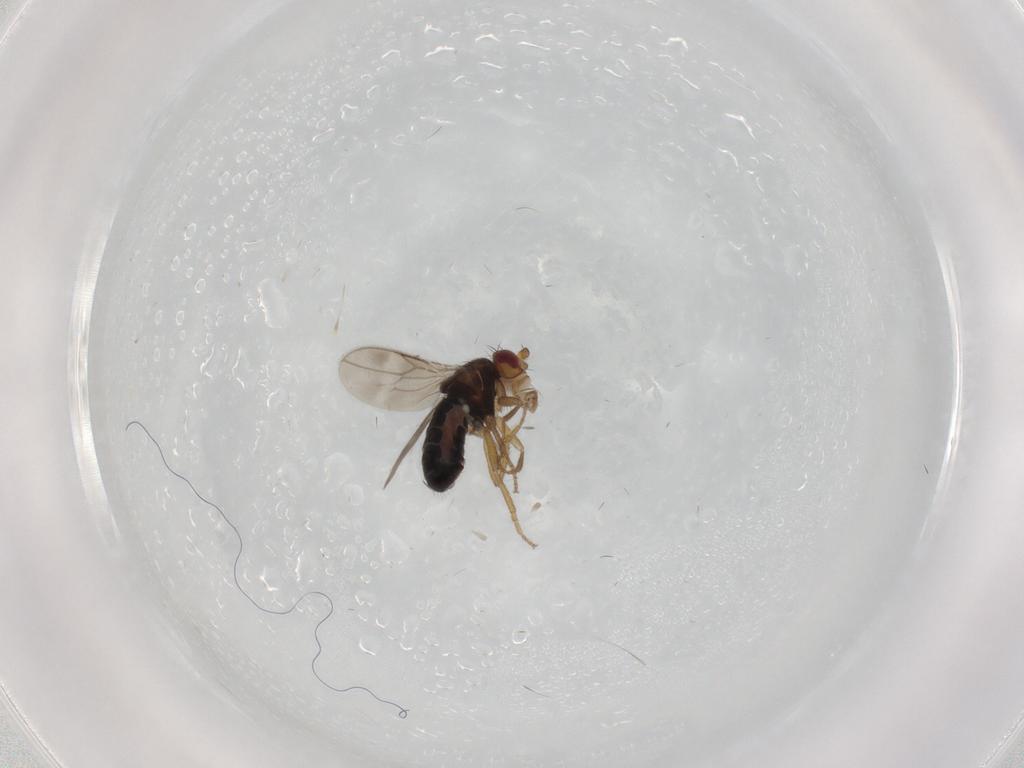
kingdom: Animalia
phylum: Arthropoda
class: Insecta
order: Diptera
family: Sphaeroceridae
